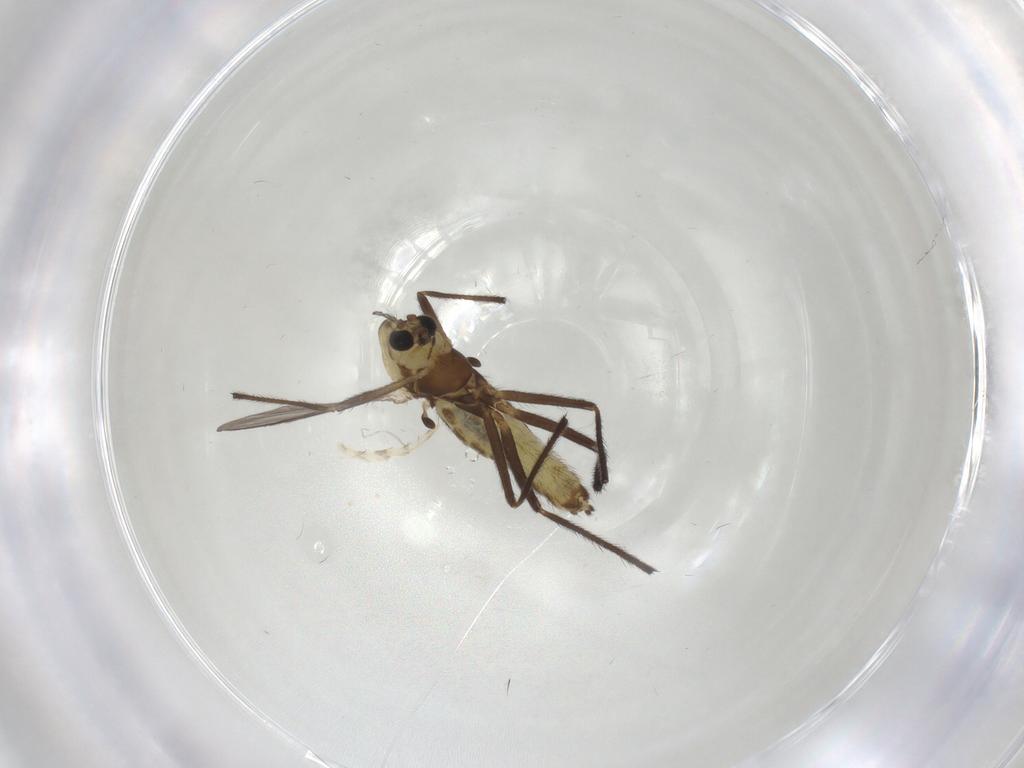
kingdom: Animalia
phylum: Arthropoda
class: Insecta
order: Diptera
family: Chironomidae
